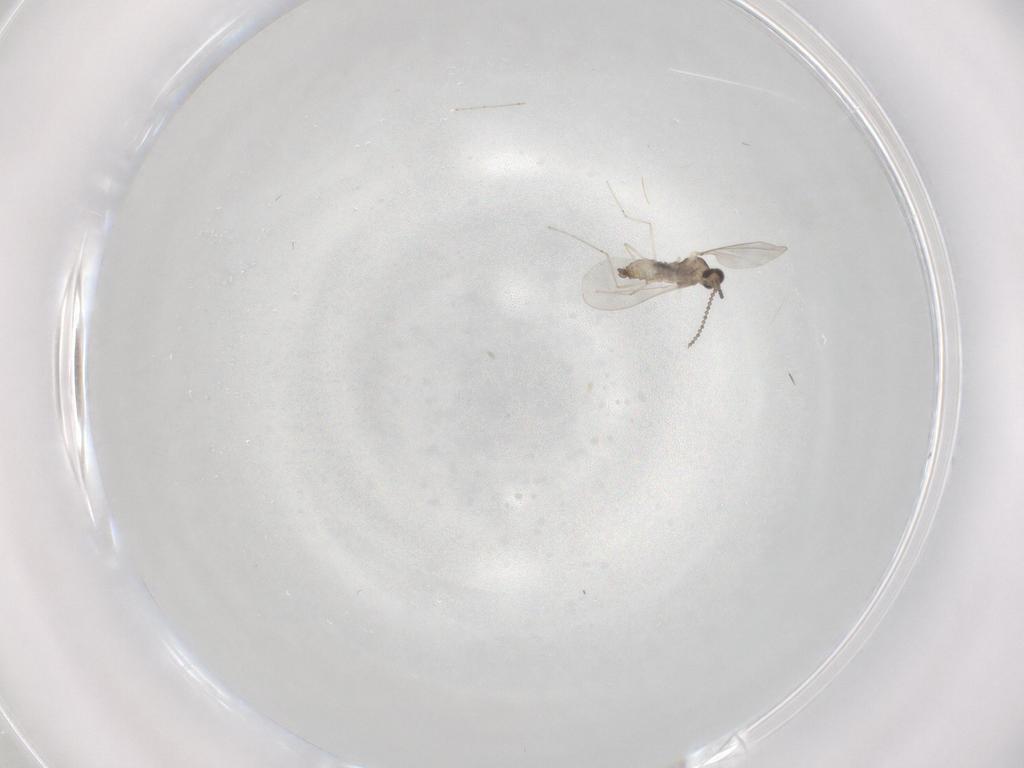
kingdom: Animalia
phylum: Arthropoda
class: Insecta
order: Diptera
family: Cecidomyiidae
